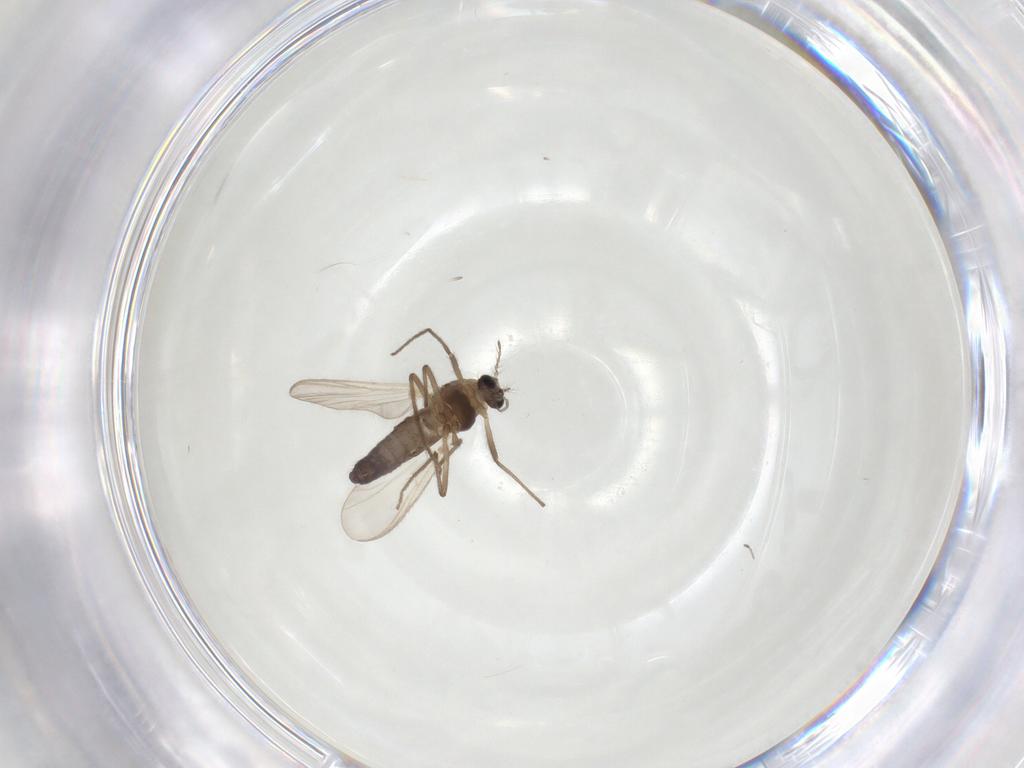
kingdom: Animalia
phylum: Arthropoda
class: Insecta
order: Diptera
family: Chironomidae
